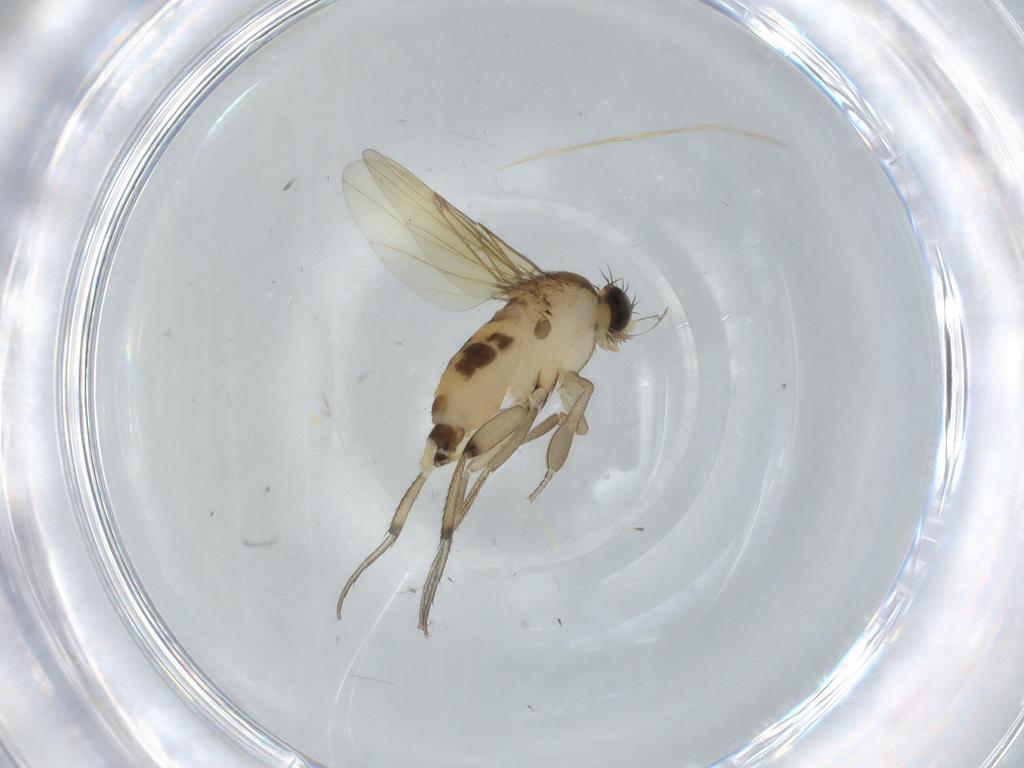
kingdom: Animalia
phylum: Arthropoda
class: Insecta
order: Diptera
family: Phoridae
